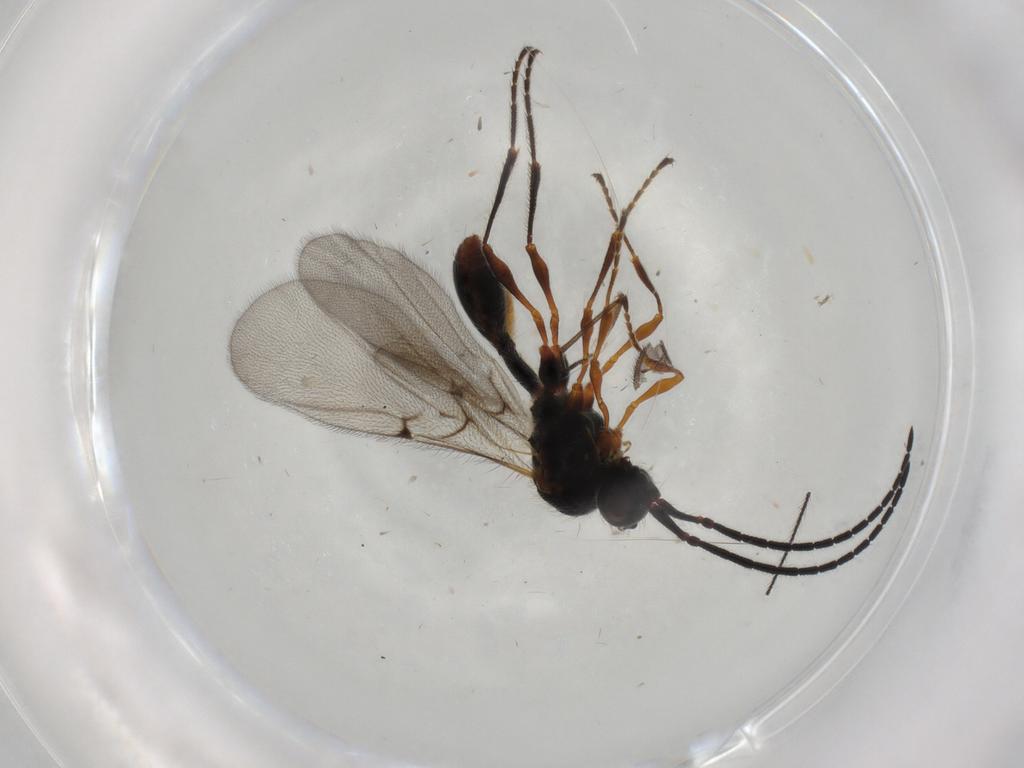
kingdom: Animalia
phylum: Arthropoda
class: Insecta
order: Hymenoptera
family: Diapriidae
